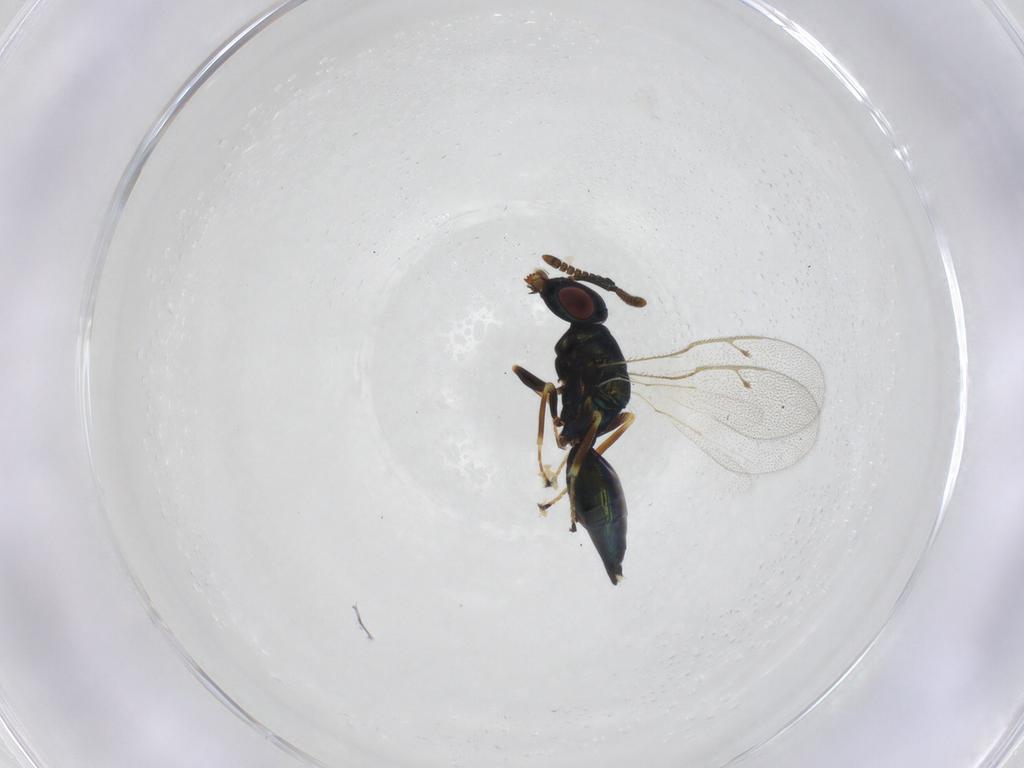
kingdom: Animalia
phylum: Arthropoda
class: Insecta
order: Hymenoptera
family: Pteromalidae
